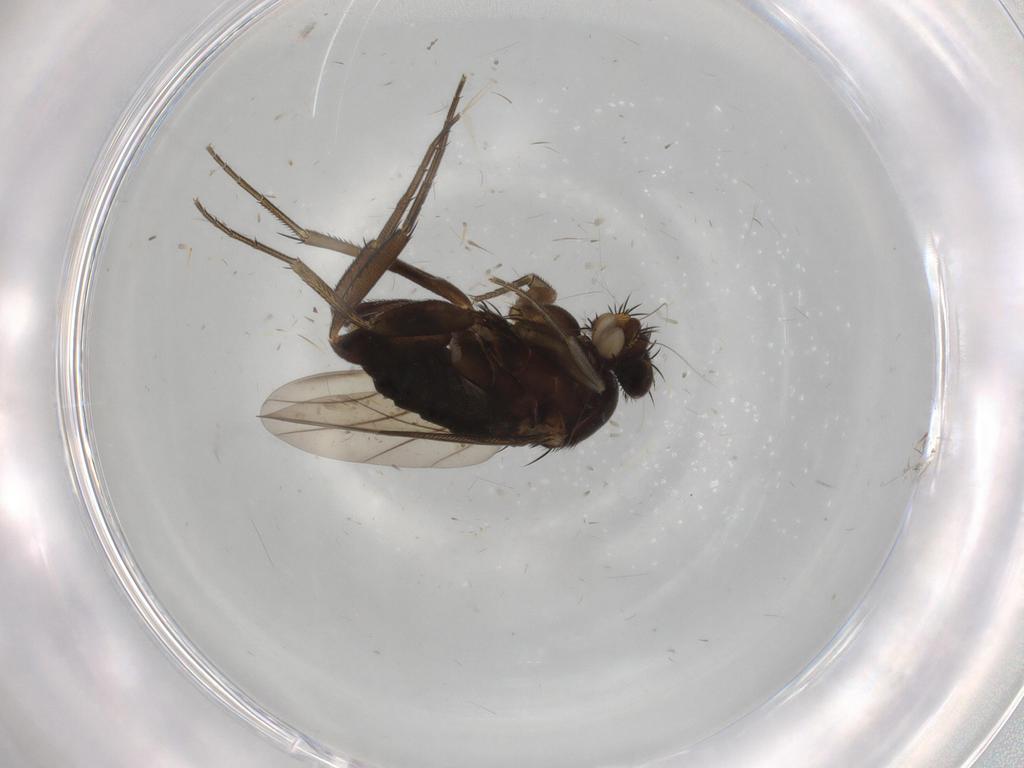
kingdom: Animalia
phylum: Arthropoda
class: Insecta
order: Diptera
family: Phoridae
